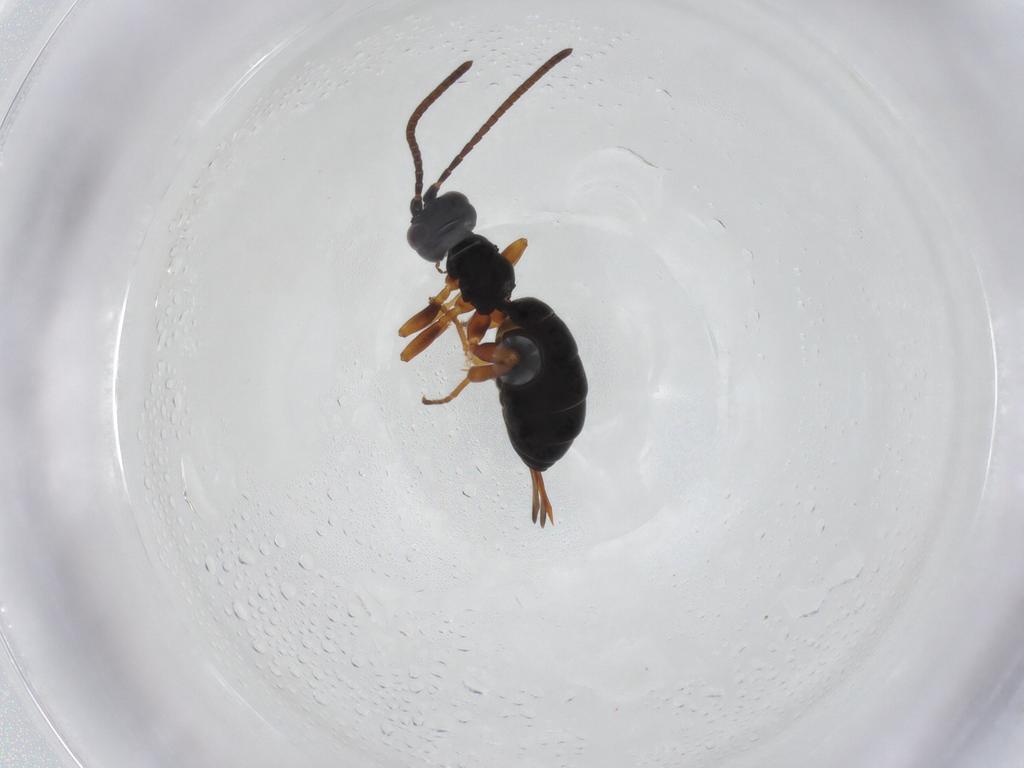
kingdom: Animalia
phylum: Arthropoda
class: Insecta
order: Hymenoptera
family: Ichneumonidae
